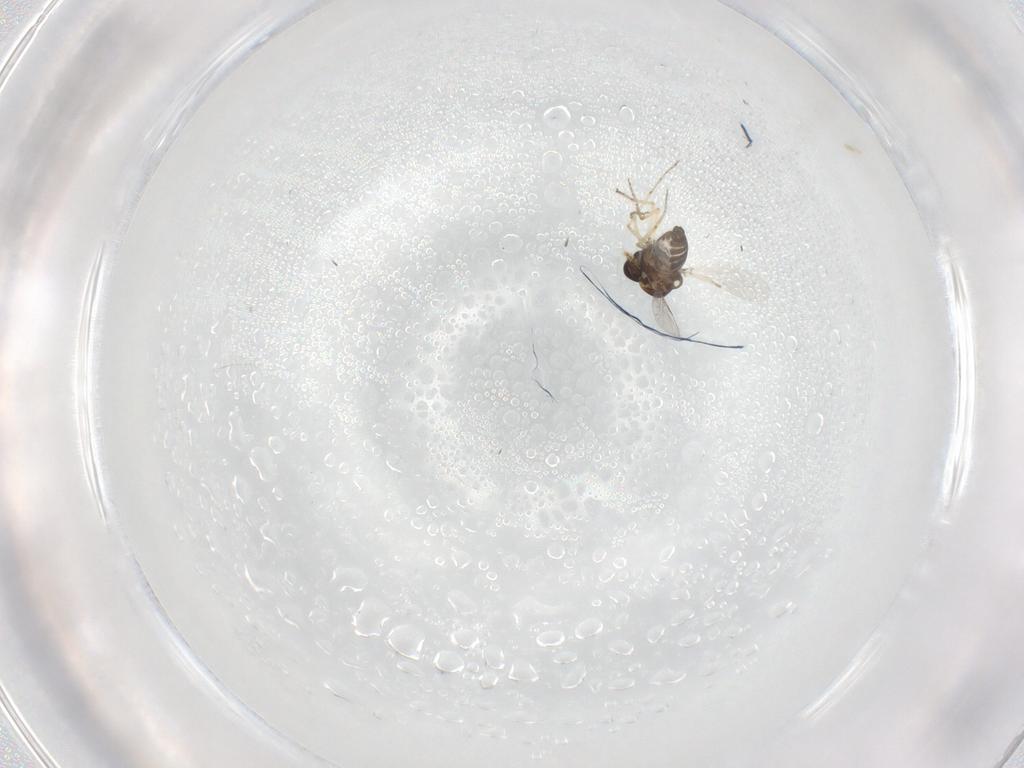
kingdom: Animalia
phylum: Arthropoda
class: Insecta
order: Diptera
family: Ceratopogonidae
